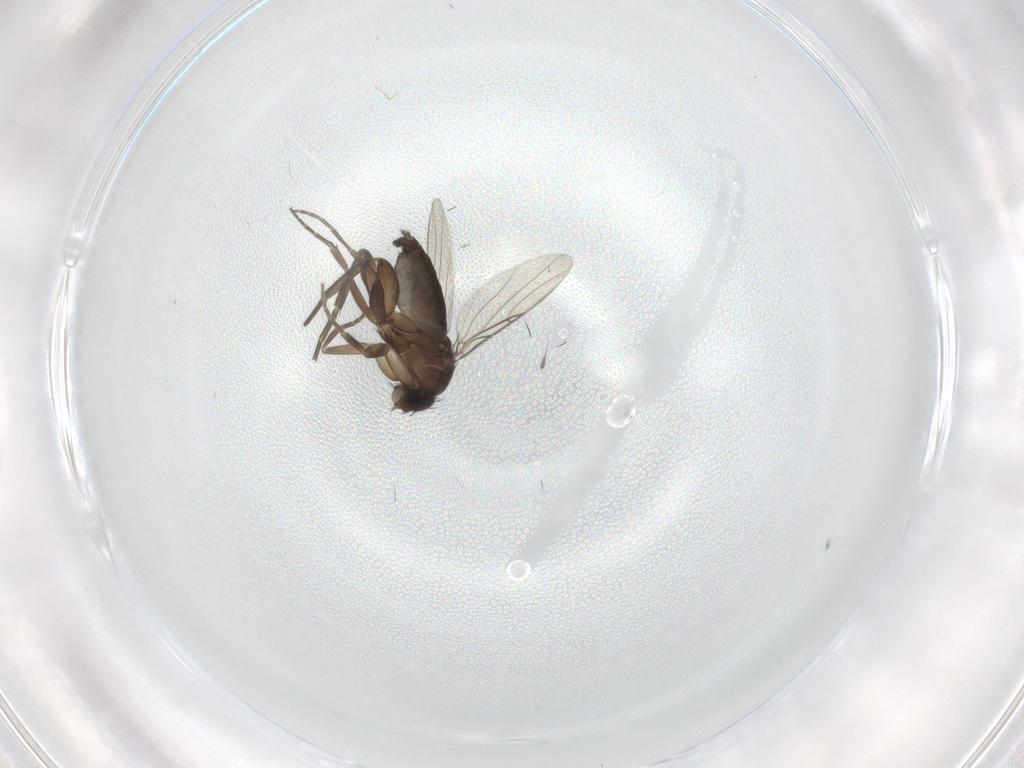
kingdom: Animalia
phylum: Arthropoda
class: Insecta
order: Diptera
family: Phoridae
